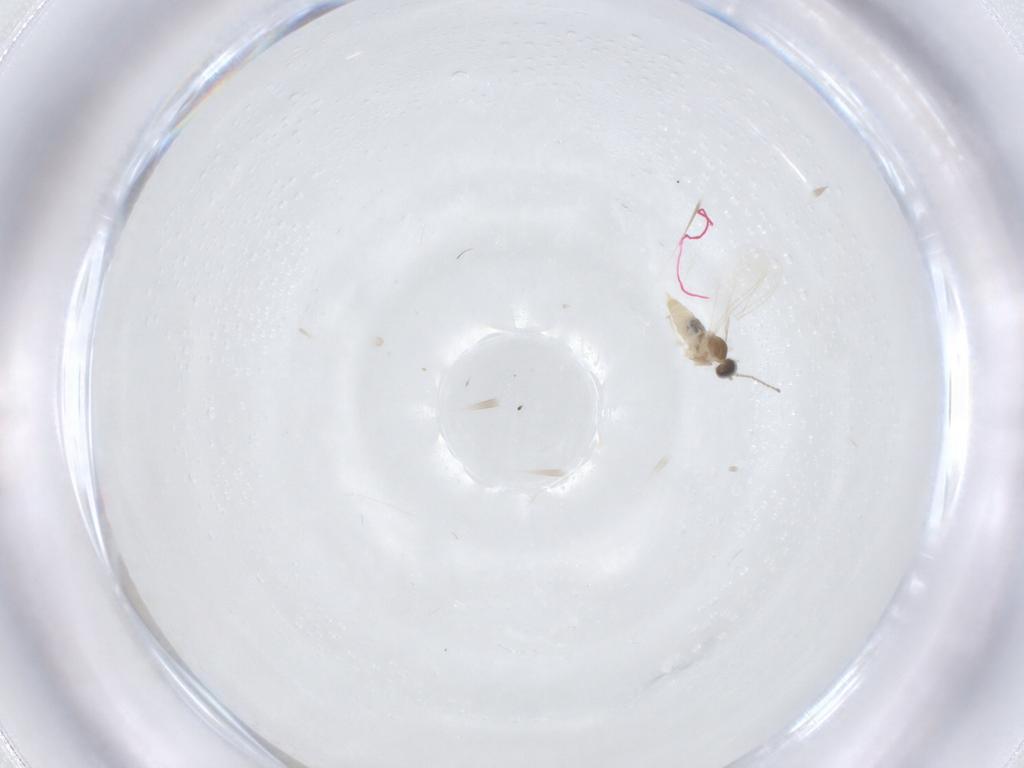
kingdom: Animalia
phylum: Arthropoda
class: Insecta
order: Diptera
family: Cecidomyiidae
